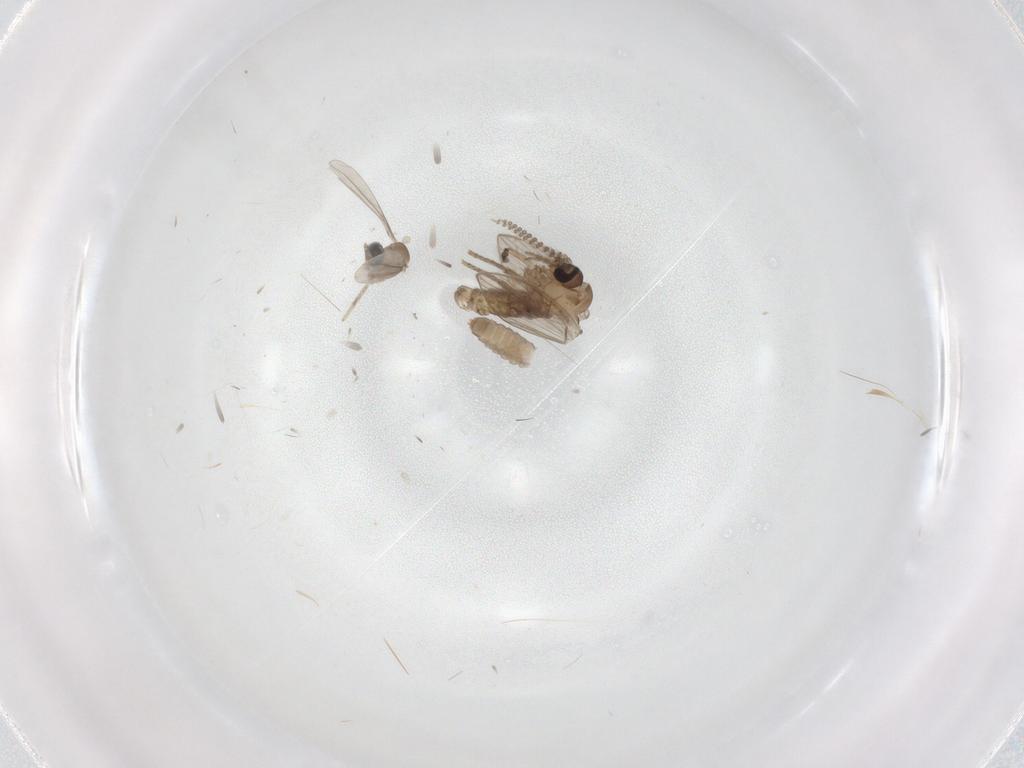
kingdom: Animalia
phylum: Arthropoda
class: Insecta
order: Diptera
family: Psychodidae
